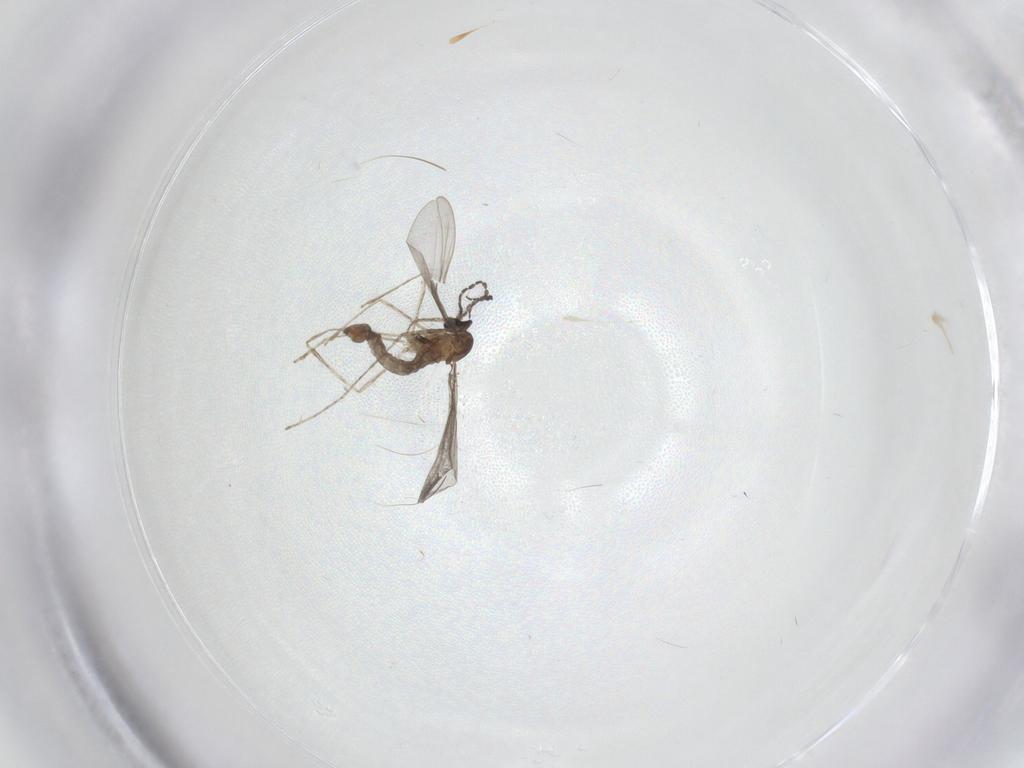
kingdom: Animalia
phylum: Arthropoda
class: Insecta
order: Diptera
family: Cecidomyiidae
